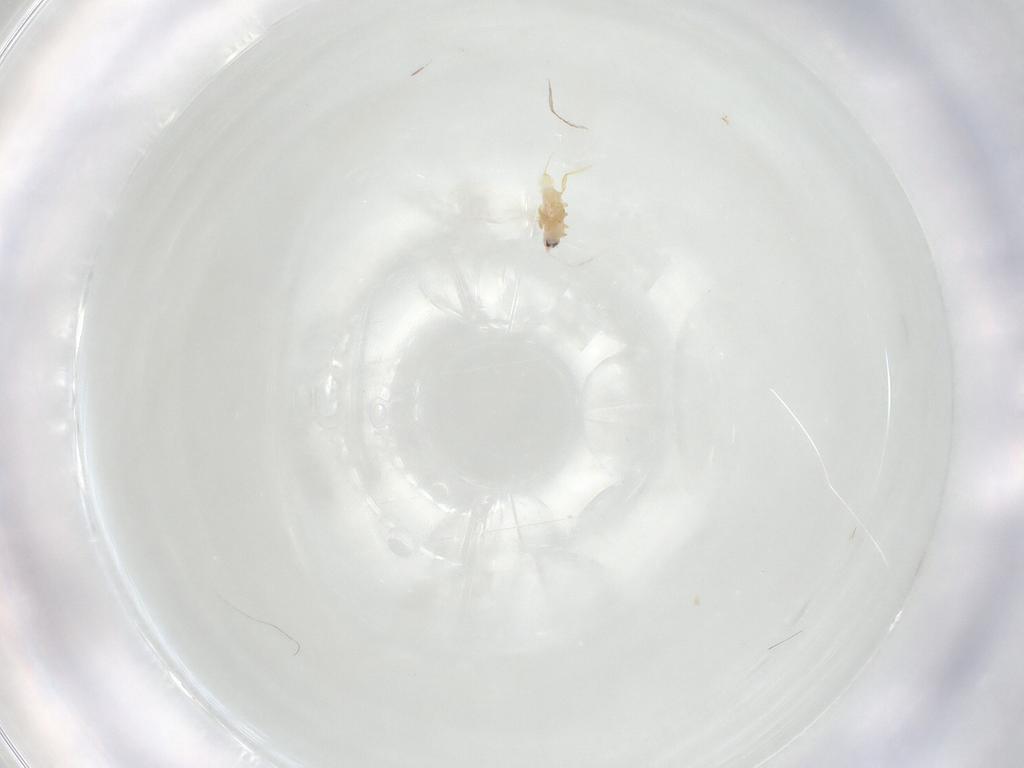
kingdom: Animalia
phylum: Arthropoda
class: Insecta
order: Hemiptera
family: Diaspididae
